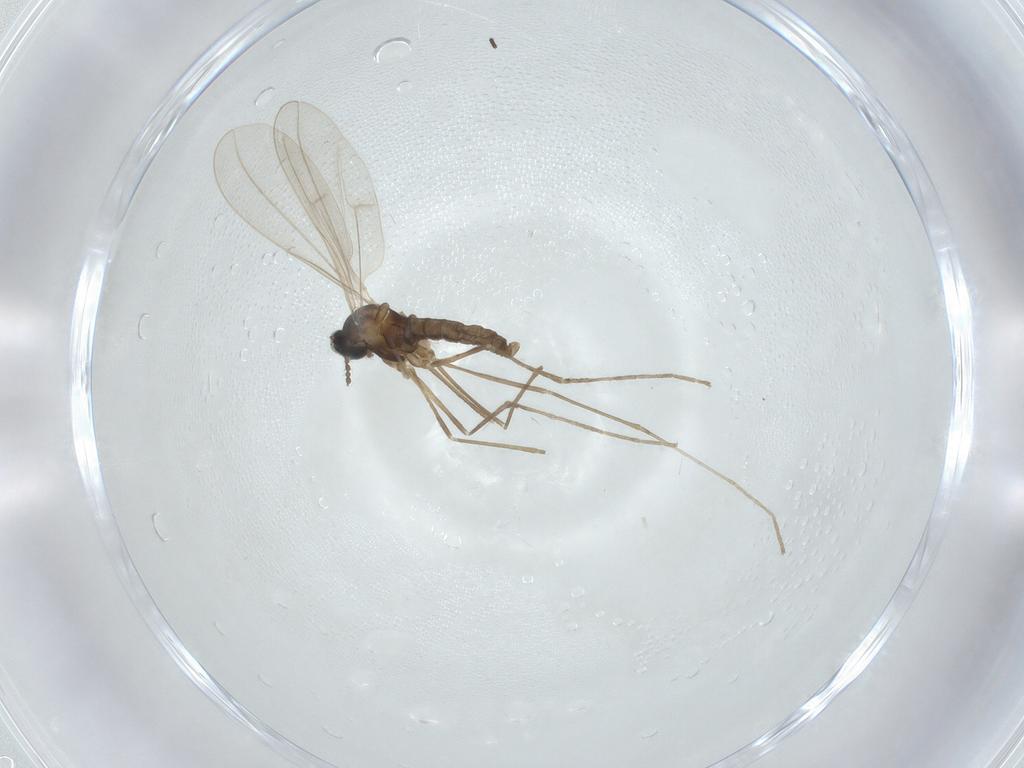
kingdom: Animalia
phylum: Arthropoda
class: Insecta
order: Diptera
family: Cecidomyiidae
